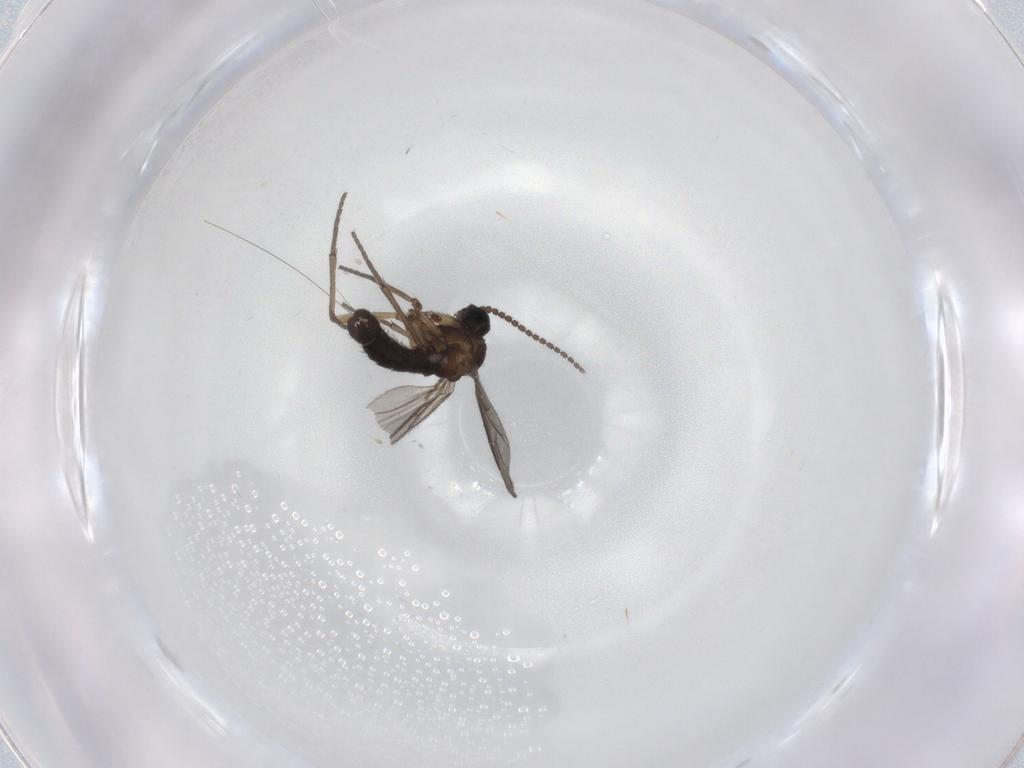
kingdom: Animalia
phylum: Arthropoda
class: Insecta
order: Diptera
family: Sciaridae
